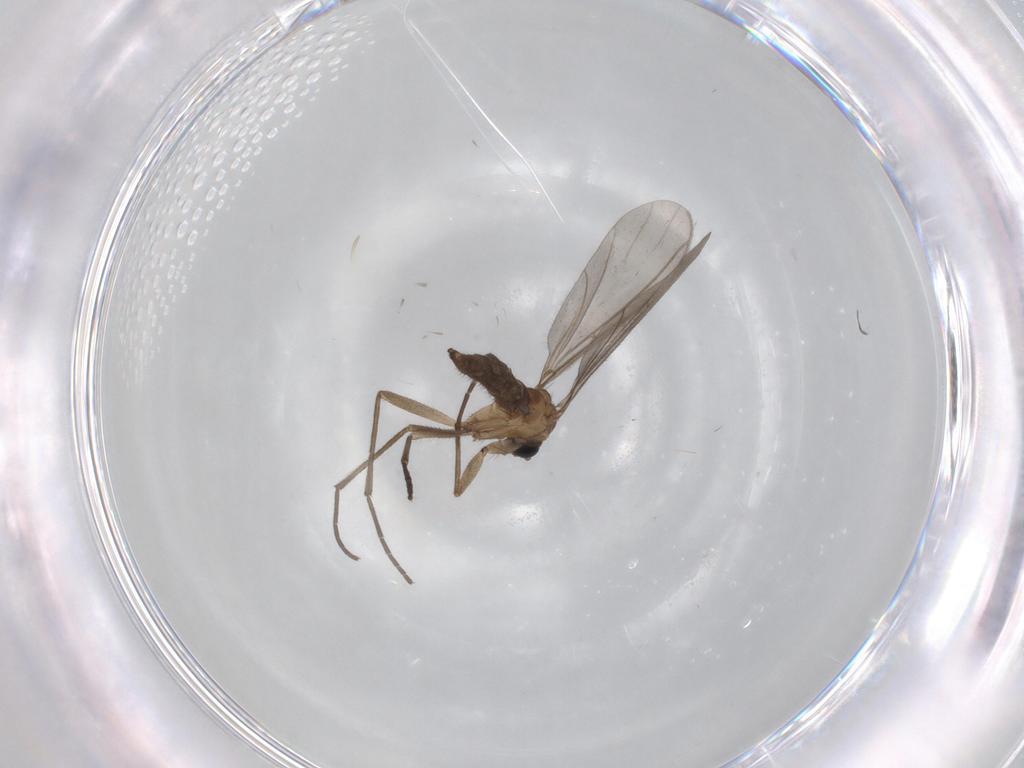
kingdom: Animalia
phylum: Arthropoda
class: Insecta
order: Diptera
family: Sciaridae
